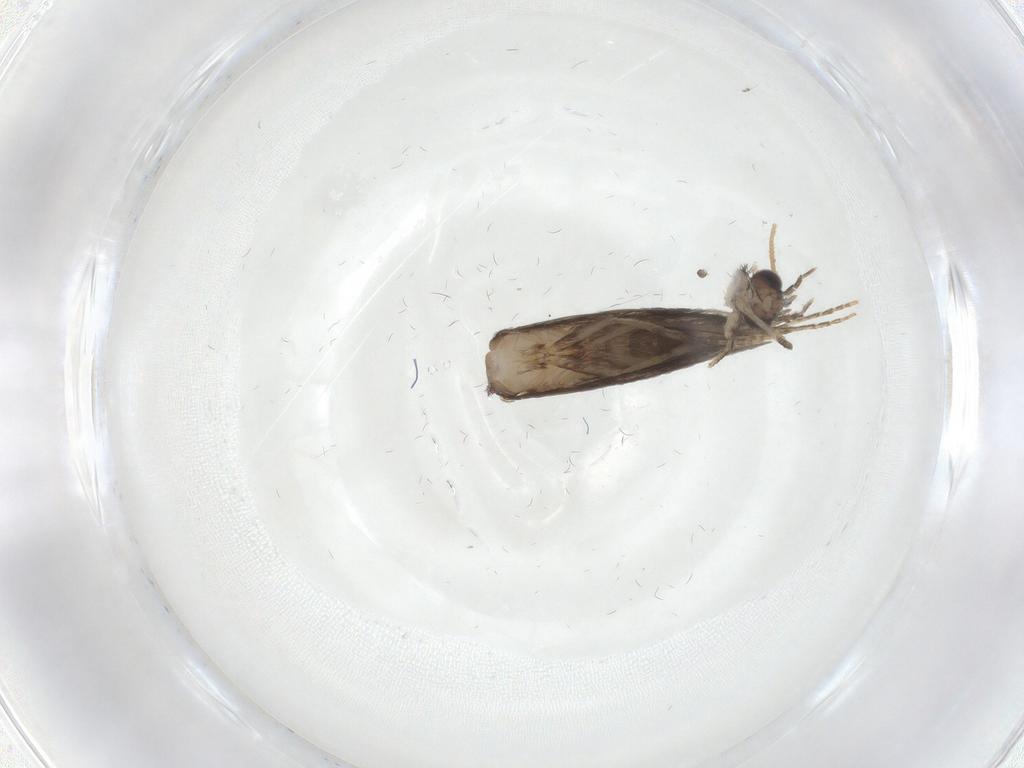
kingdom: Animalia
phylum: Arthropoda
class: Insecta
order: Trichoptera
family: Hydroptilidae
